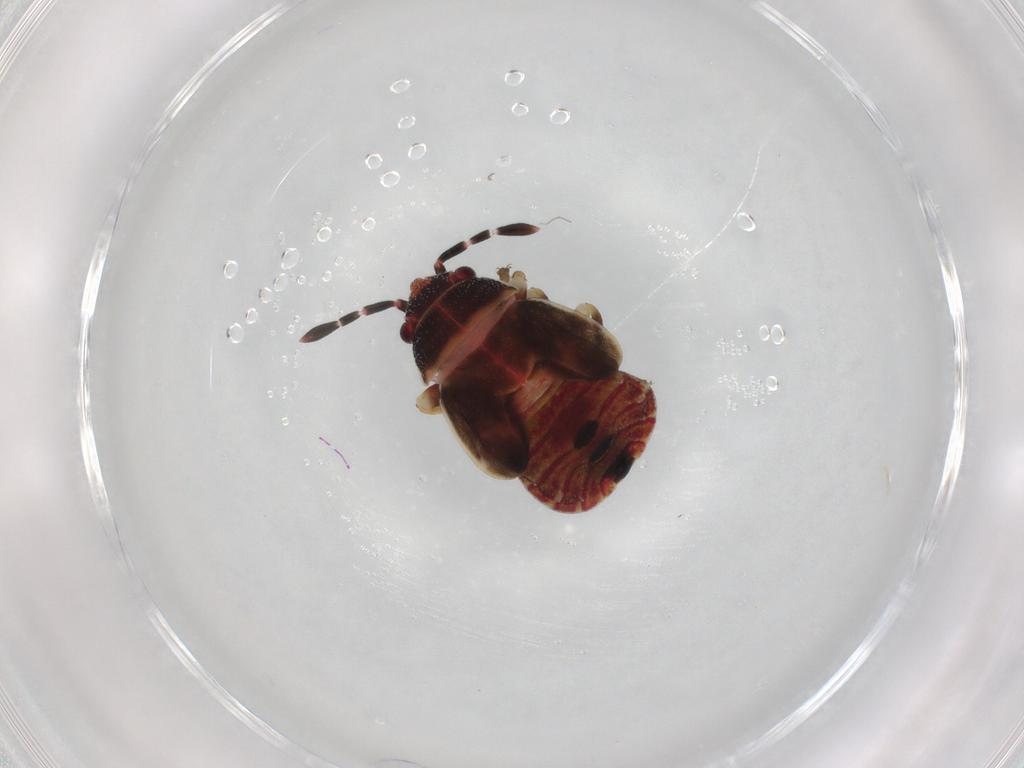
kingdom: Animalia
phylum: Arthropoda
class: Insecta
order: Hemiptera
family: Rhyparochromidae
